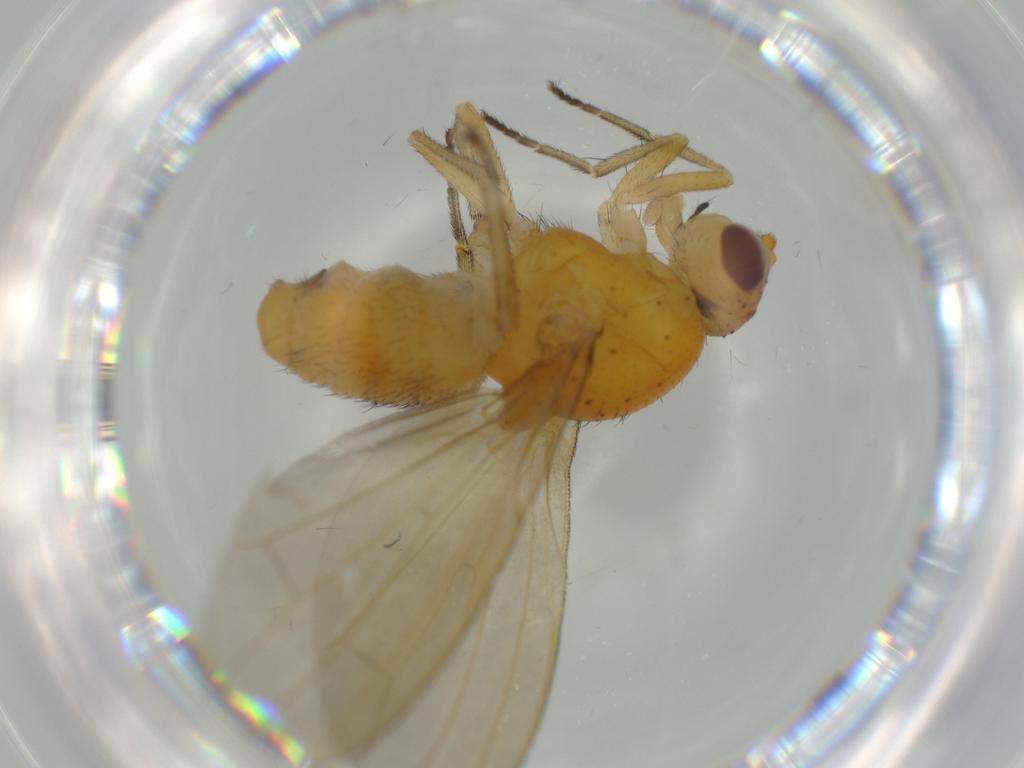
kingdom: Animalia
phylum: Arthropoda
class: Insecta
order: Diptera
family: Sciaridae
